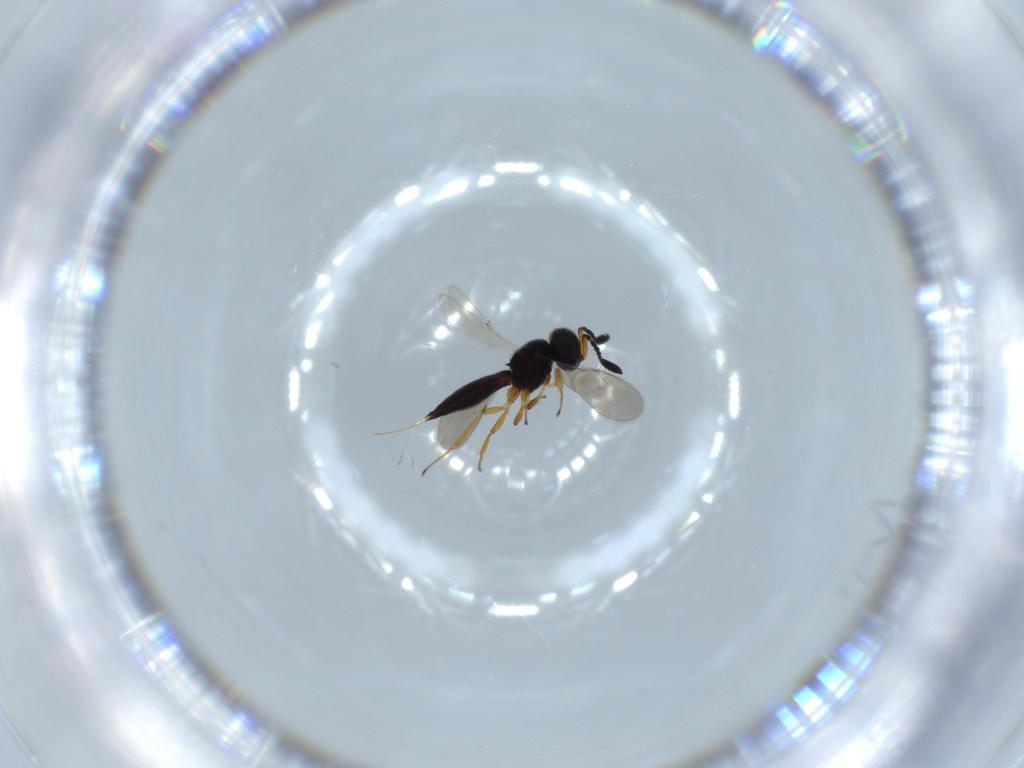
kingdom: Animalia
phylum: Arthropoda
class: Insecta
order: Hymenoptera
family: Scelionidae
